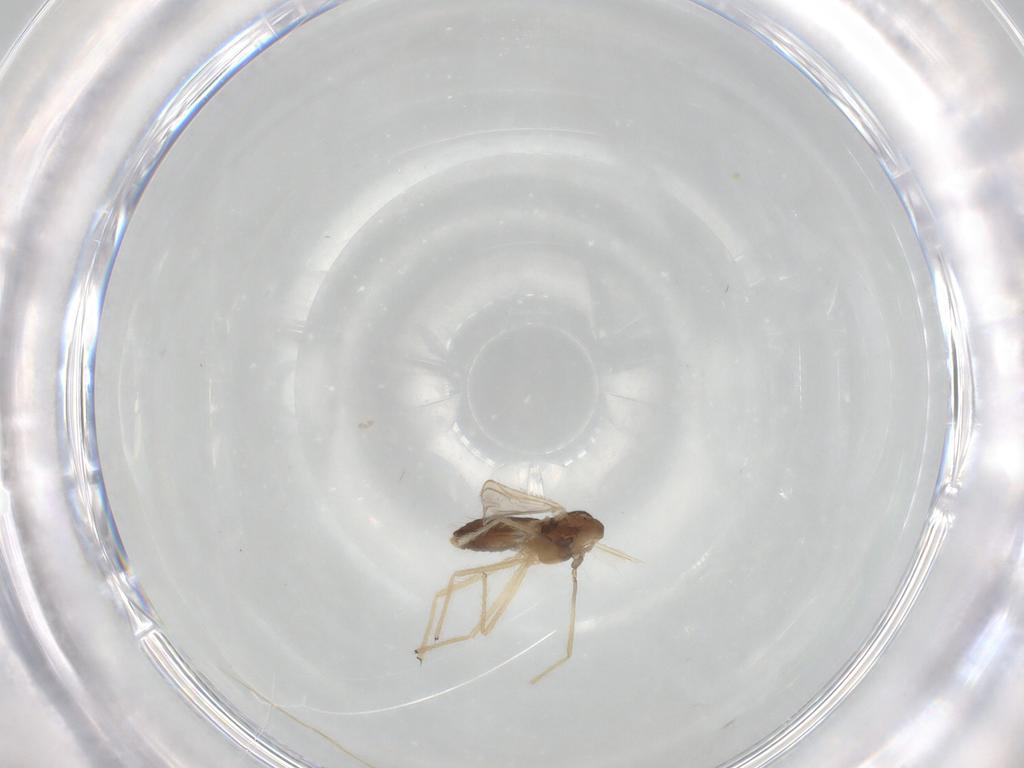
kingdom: Animalia
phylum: Arthropoda
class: Insecta
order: Diptera
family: Chironomidae
